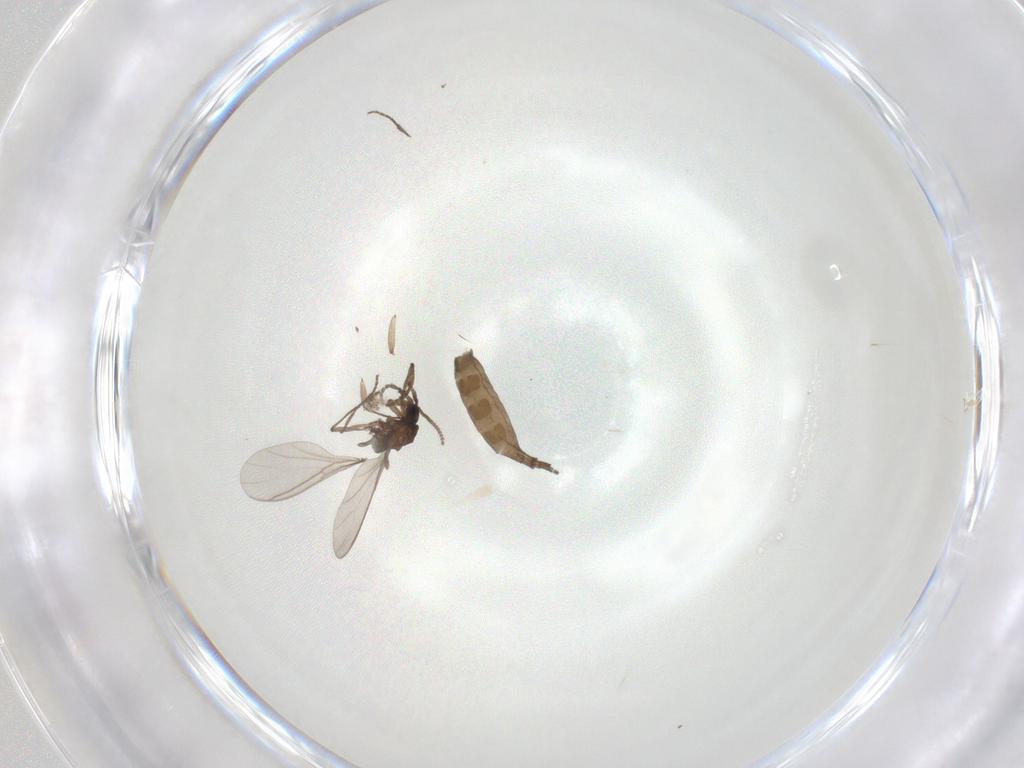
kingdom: Animalia
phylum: Arthropoda
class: Insecta
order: Diptera
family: Sciaridae
